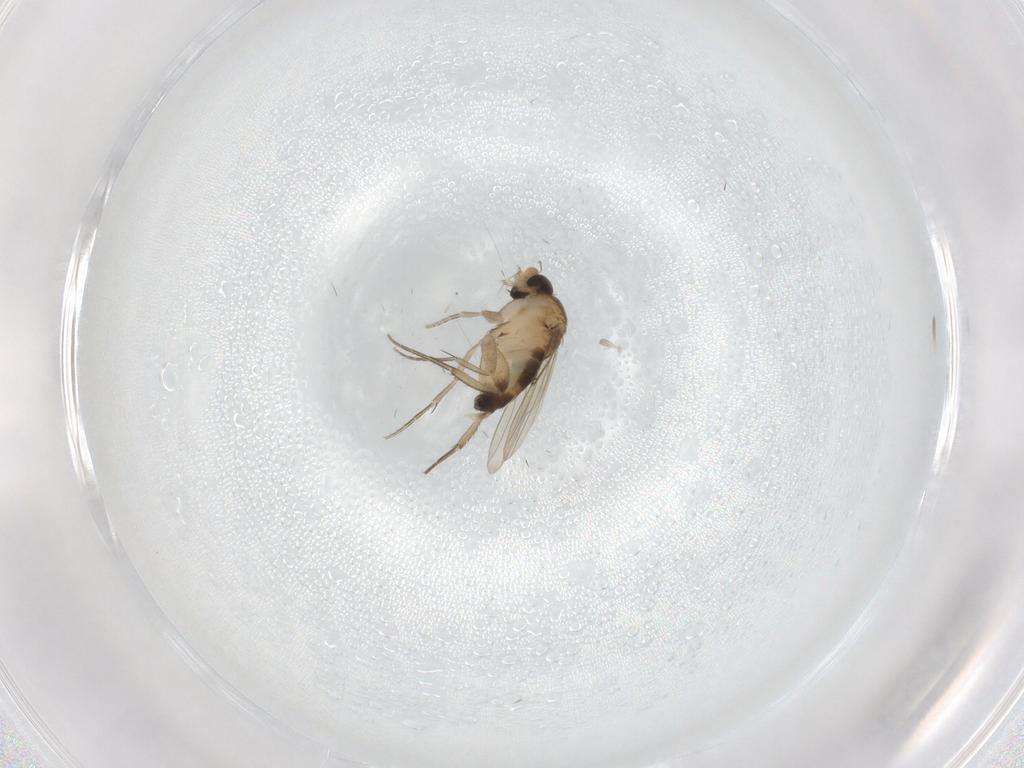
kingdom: Animalia
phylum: Arthropoda
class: Insecta
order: Diptera
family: Phoridae
